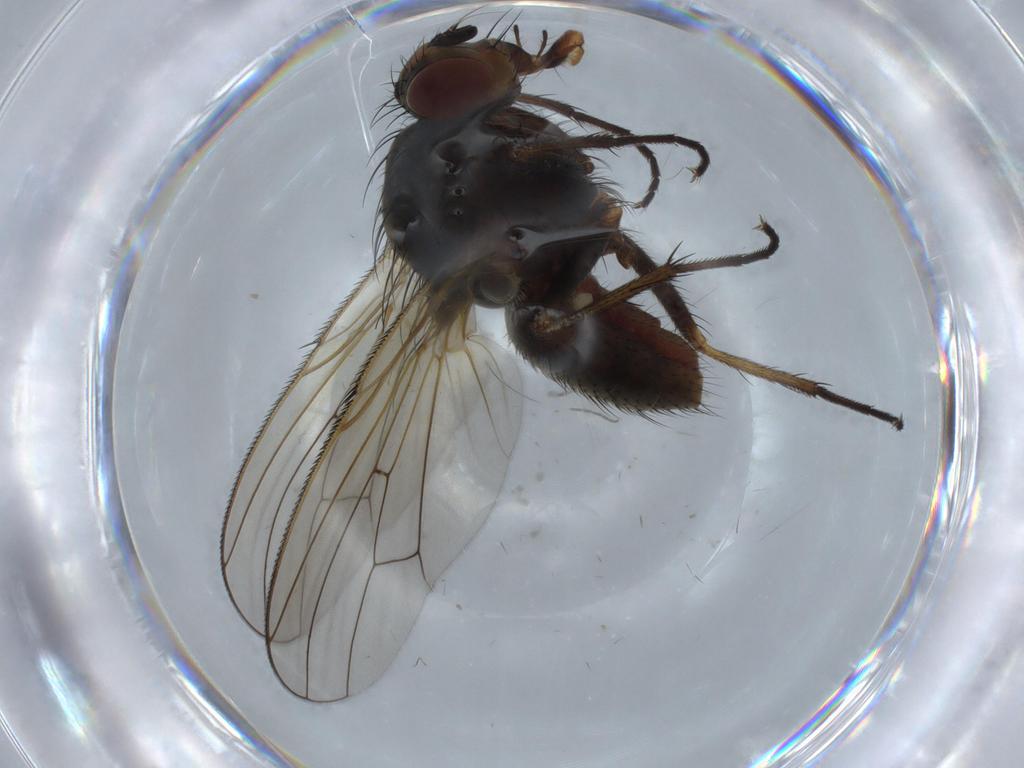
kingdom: Animalia
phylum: Arthropoda
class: Insecta
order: Diptera
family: Anthomyiidae
